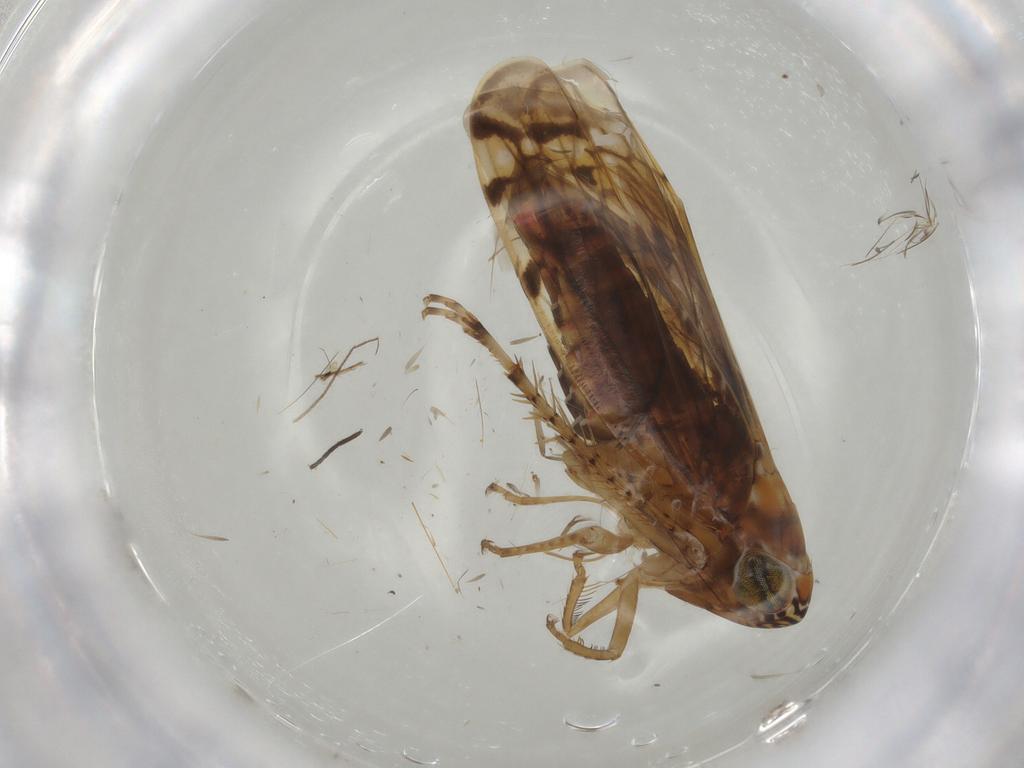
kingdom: Animalia
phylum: Arthropoda
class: Insecta
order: Hemiptera
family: Cicadellidae
